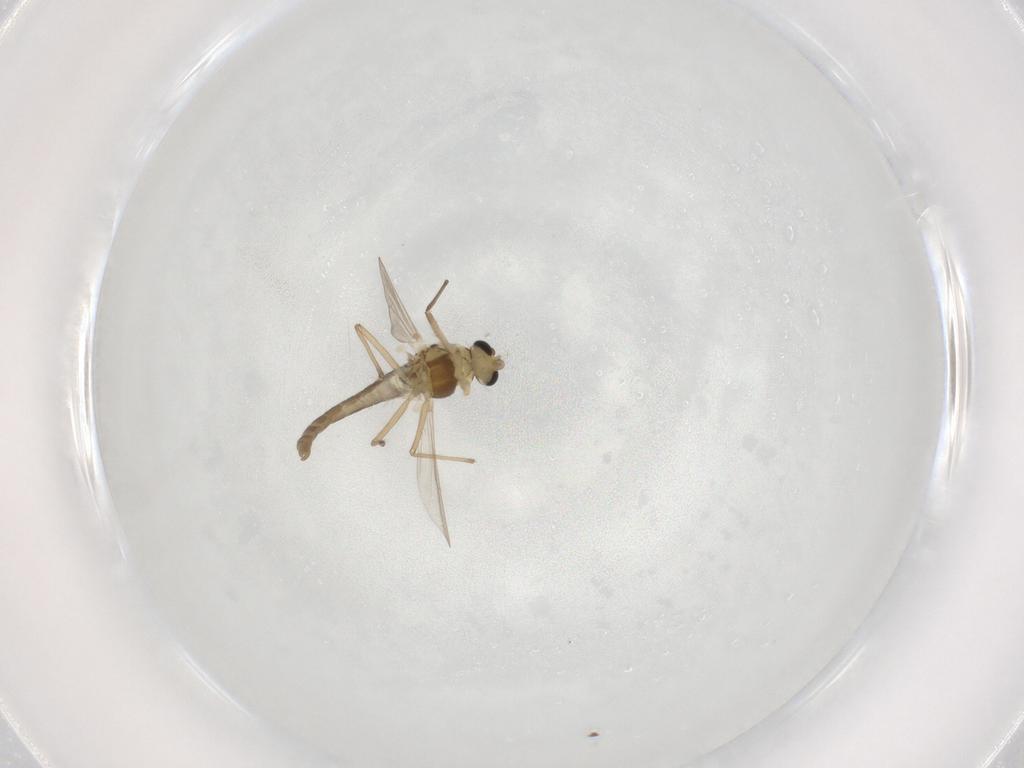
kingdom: Animalia
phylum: Arthropoda
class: Insecta
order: Diptera
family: Chironomidae
